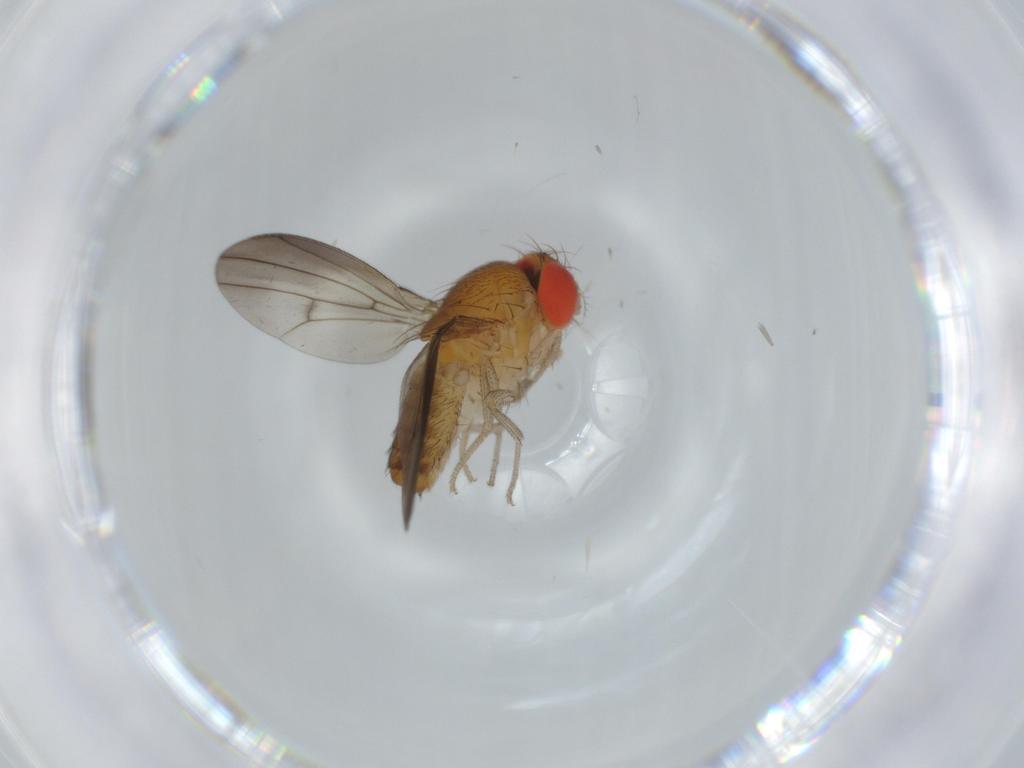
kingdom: Animalia
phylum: Arthropoda
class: Insecta
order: Diptera
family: Drosophilidae
